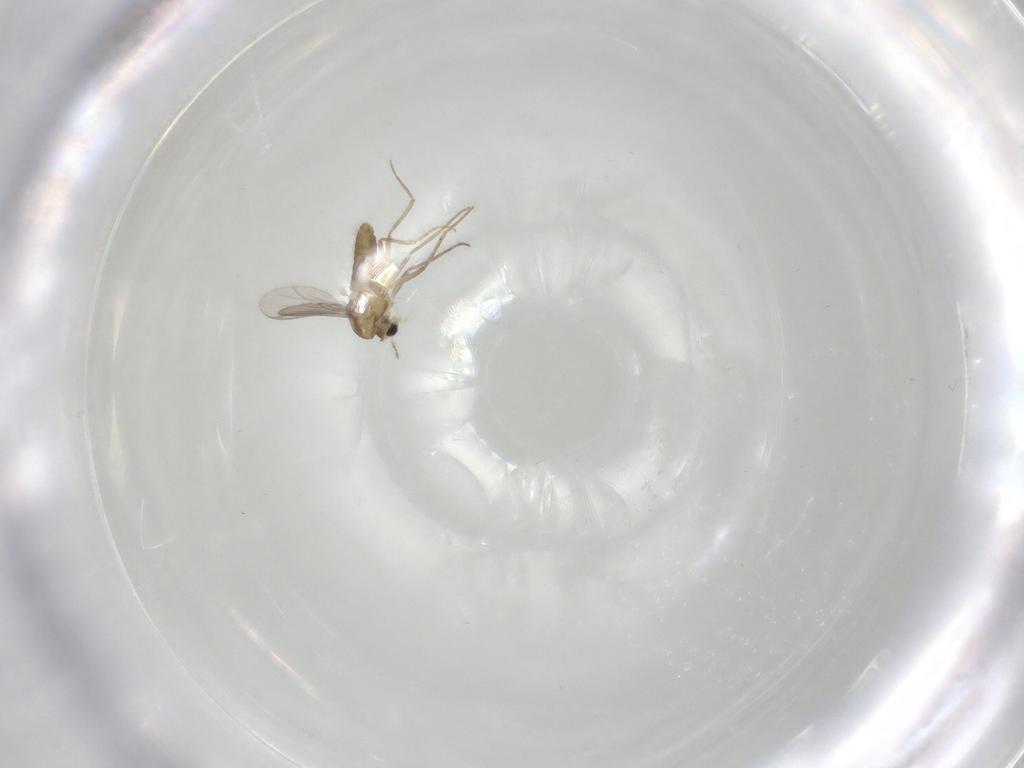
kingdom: Animalia
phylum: Arthropoda
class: Insecta
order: Diptera
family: Chironomidae
